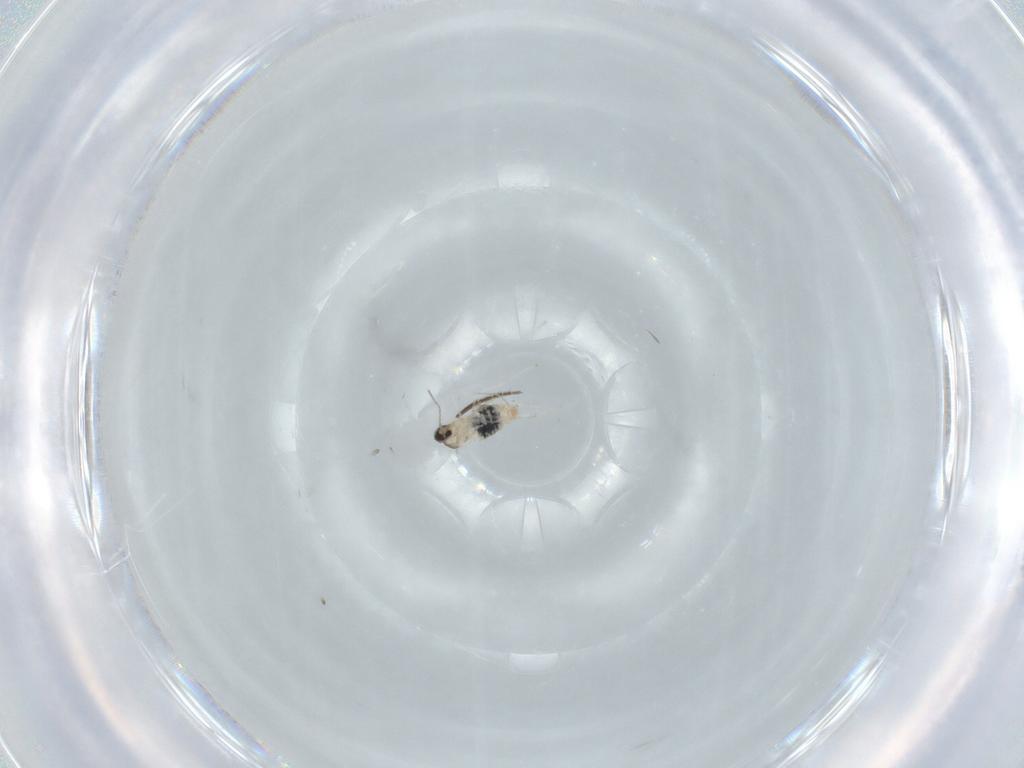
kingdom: Animalia
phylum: Arthropoda
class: Insecta
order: Diptera
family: Cecidomyiidae
